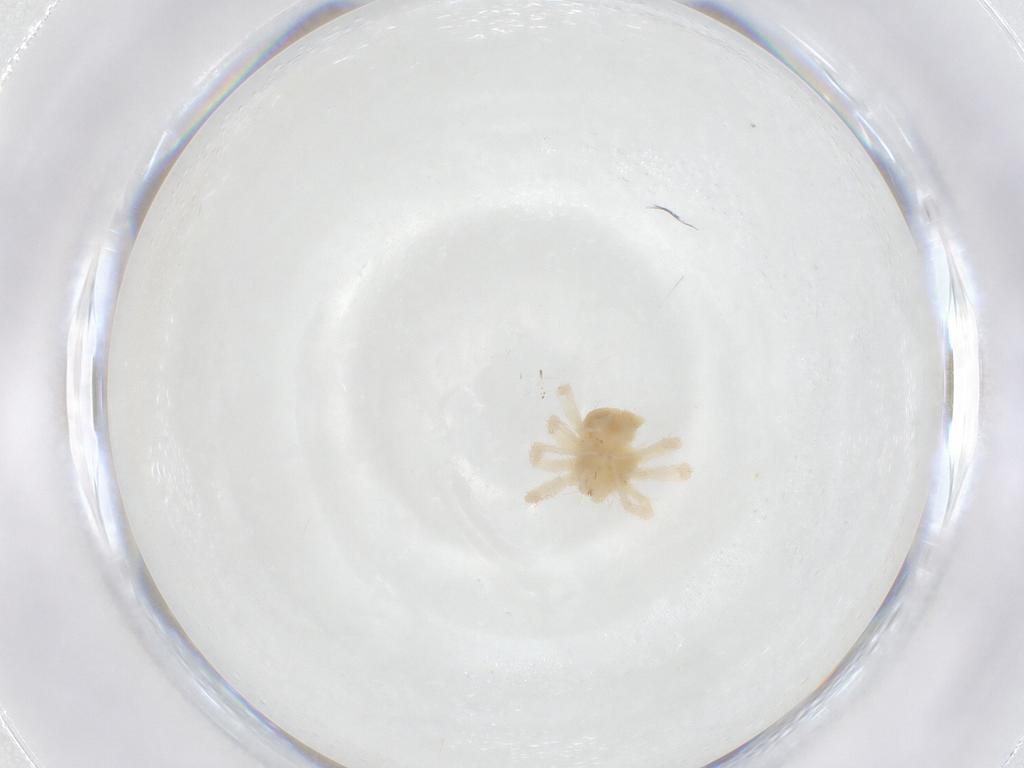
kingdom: Animalia
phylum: Arthropoda
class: Arachnida
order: Trombidiformes
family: Anystidae
